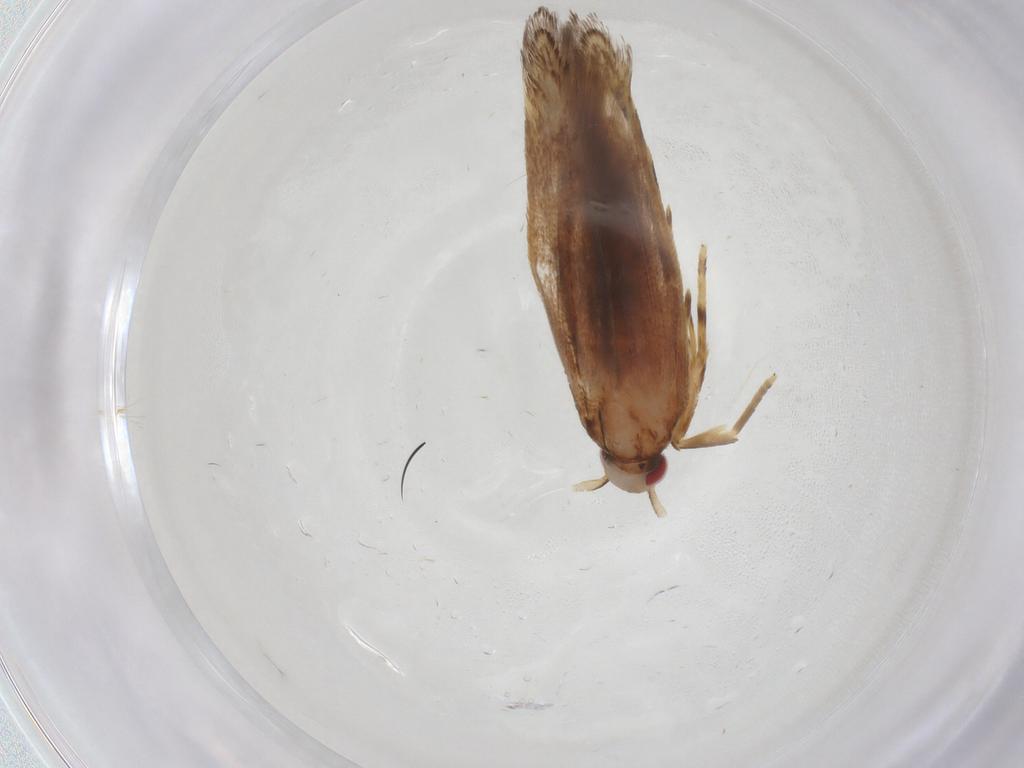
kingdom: Animalia
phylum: Arthropoda
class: Insecta
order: Lepidoptera
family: Cosmopterigidae
